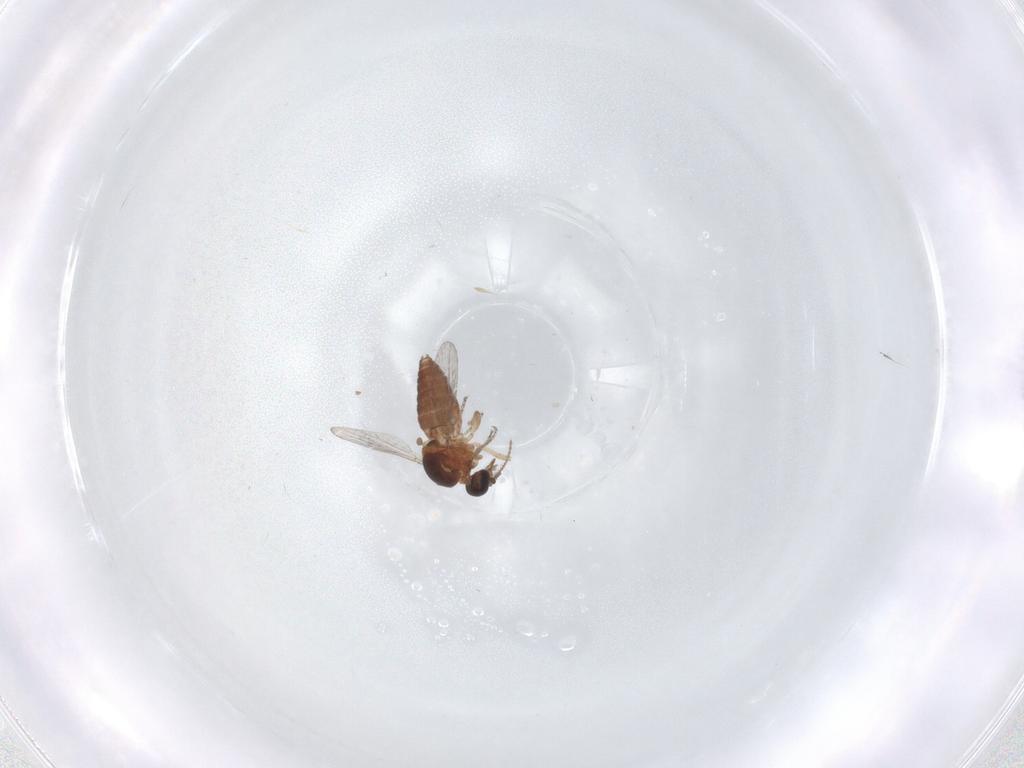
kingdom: Animalia
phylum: Arthropoda
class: Insecta
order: Diptera
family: Ceratopogonidae
